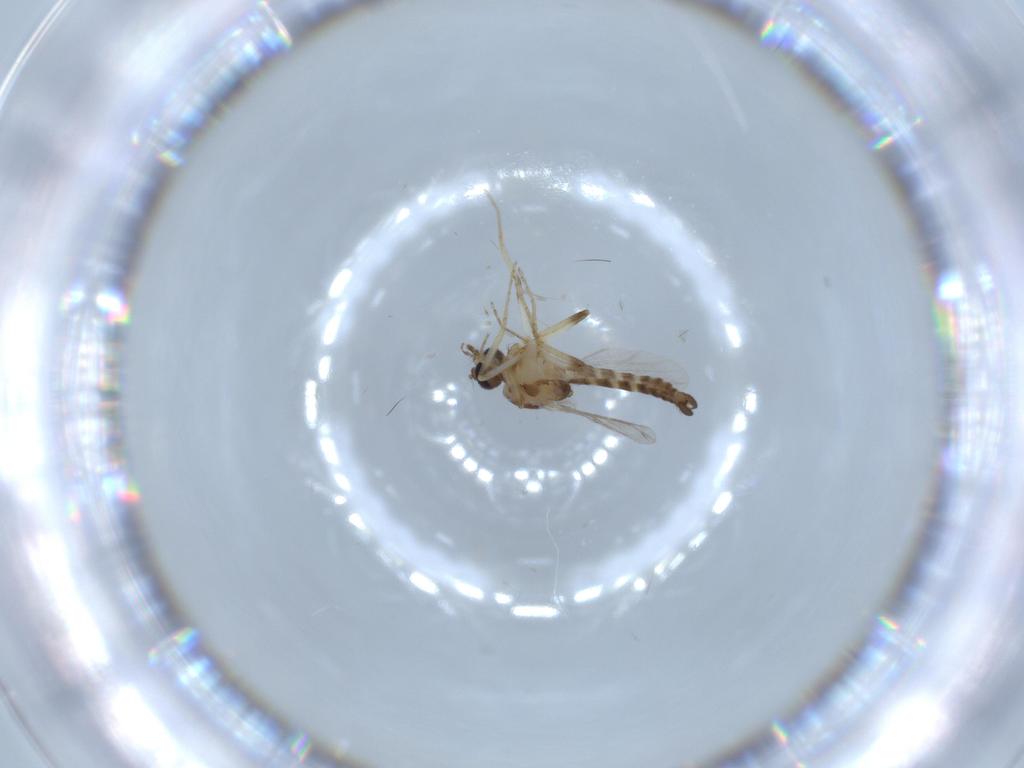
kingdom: Animalia
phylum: Arthropoda
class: Insecta
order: Diptera
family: Ceratopogonidae
